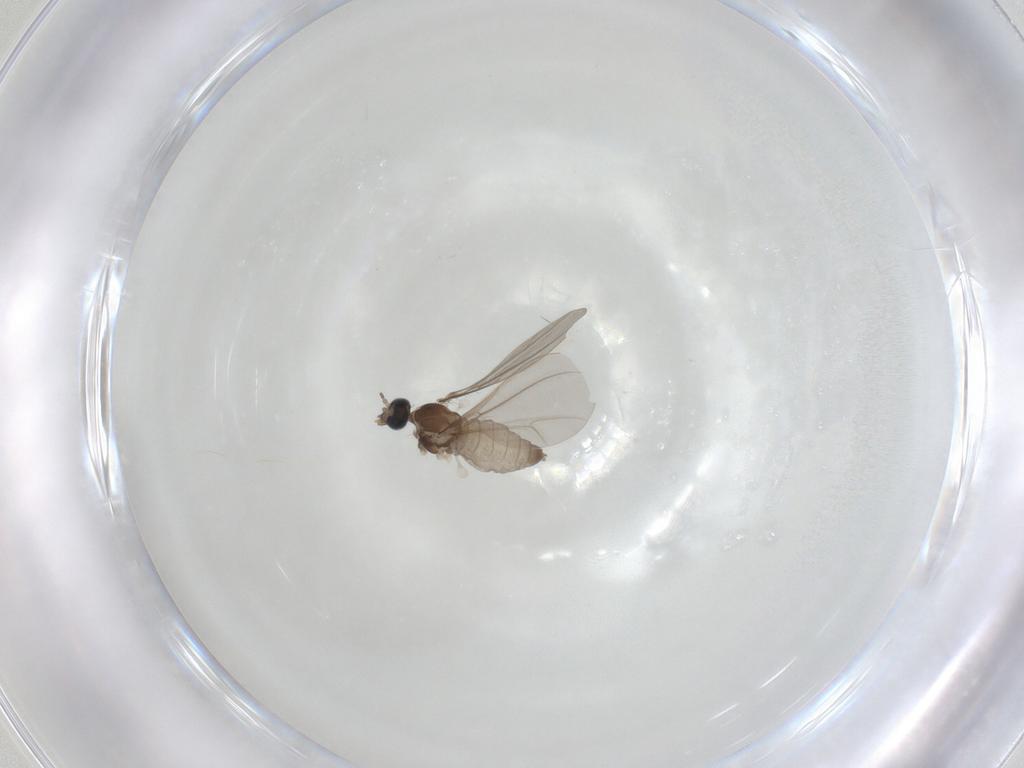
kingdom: Animalia
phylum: Arthropoda
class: Insecta
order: Diptera
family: Cecidomyiidae
